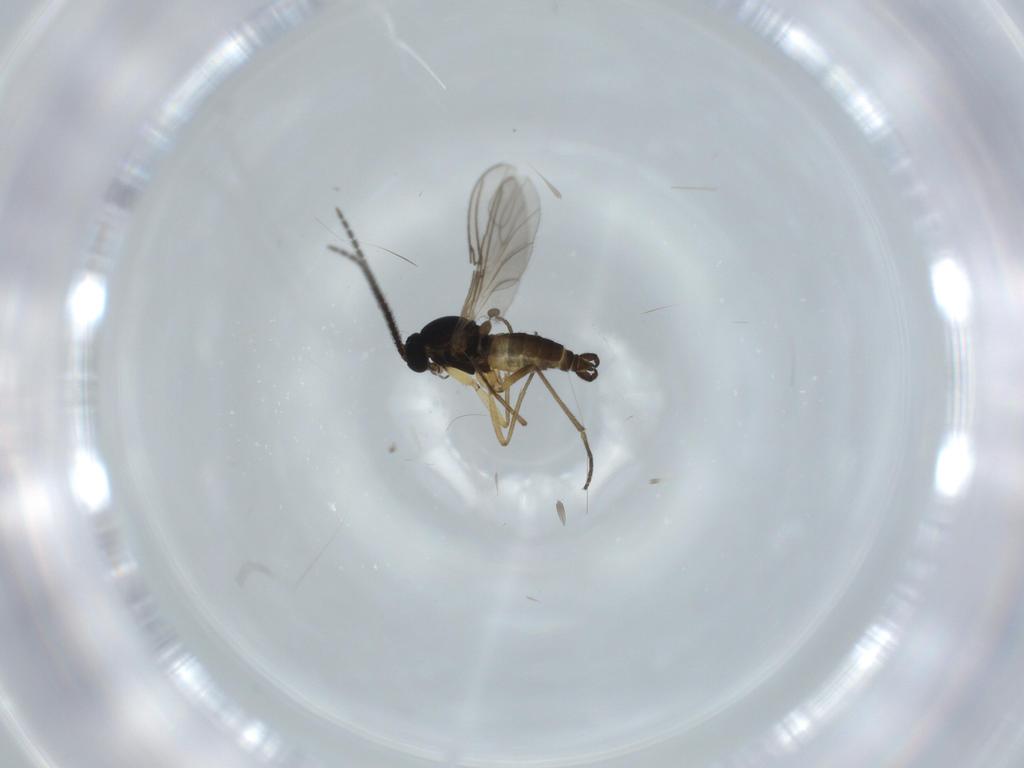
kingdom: Animalia
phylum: Arthropoda
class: Insecta
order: Diptera
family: Sciaridae
